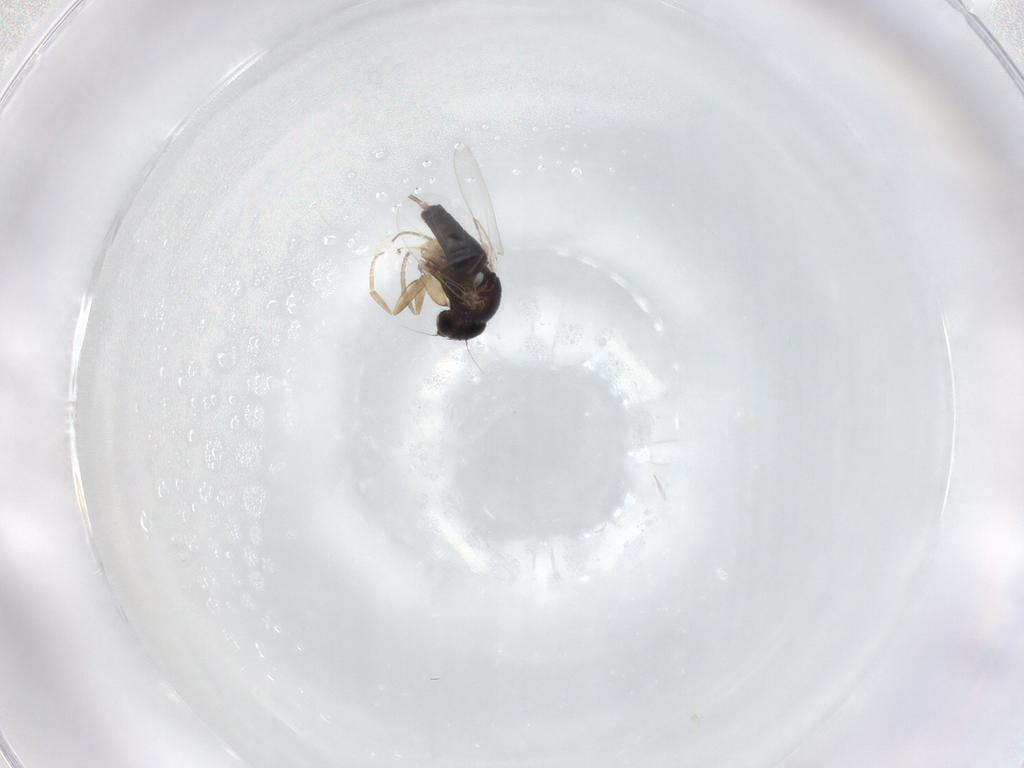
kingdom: Animalia
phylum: Arthropoda
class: Insecta
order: Diptera
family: Phoridae
